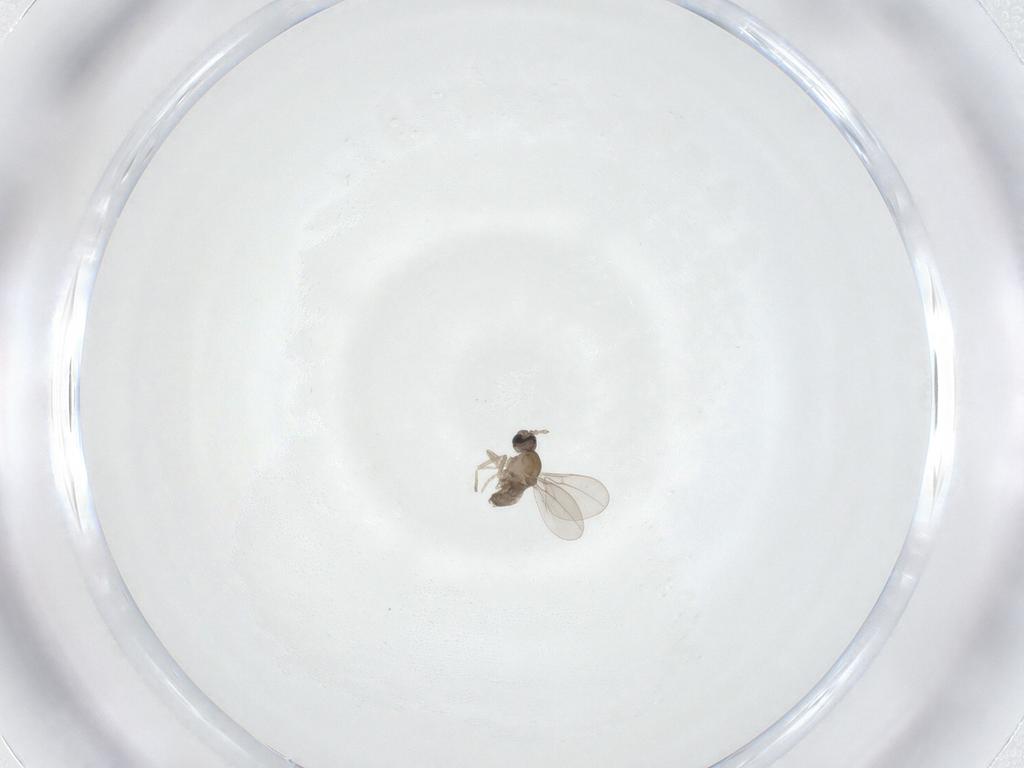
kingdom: Animalia
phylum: Arthropoda
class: Insecta
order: Diptera
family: Cecidomyiidae
